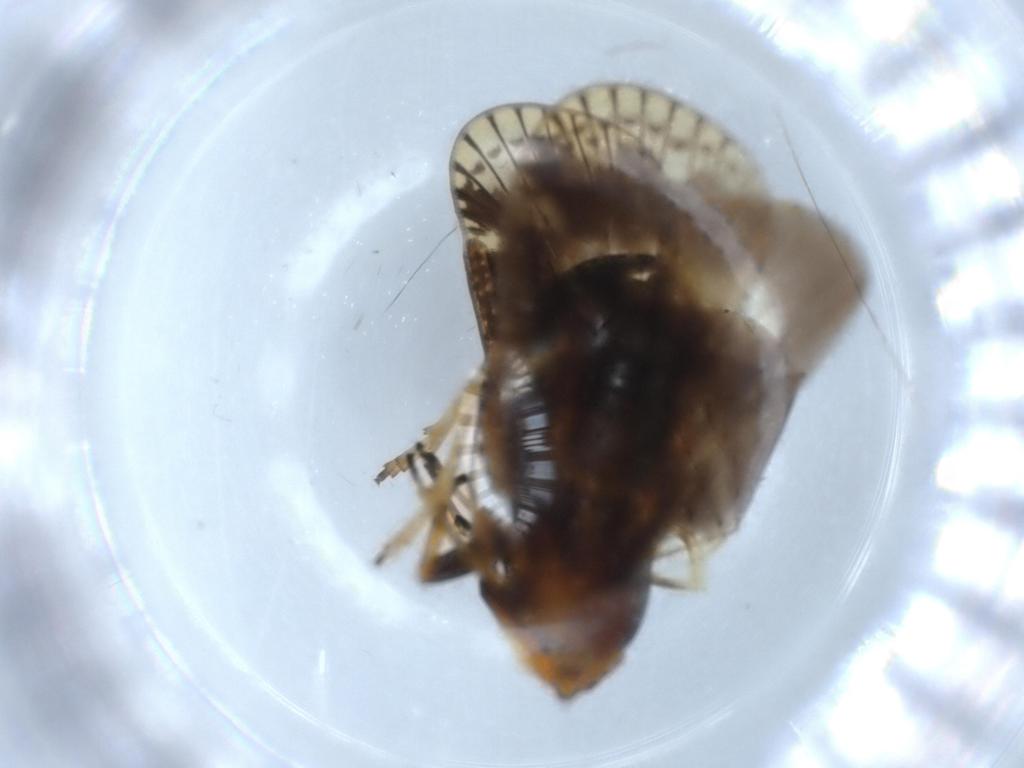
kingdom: Animalia
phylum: Arthropoda
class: Insecta
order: Hemiptera
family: Cixiidae
